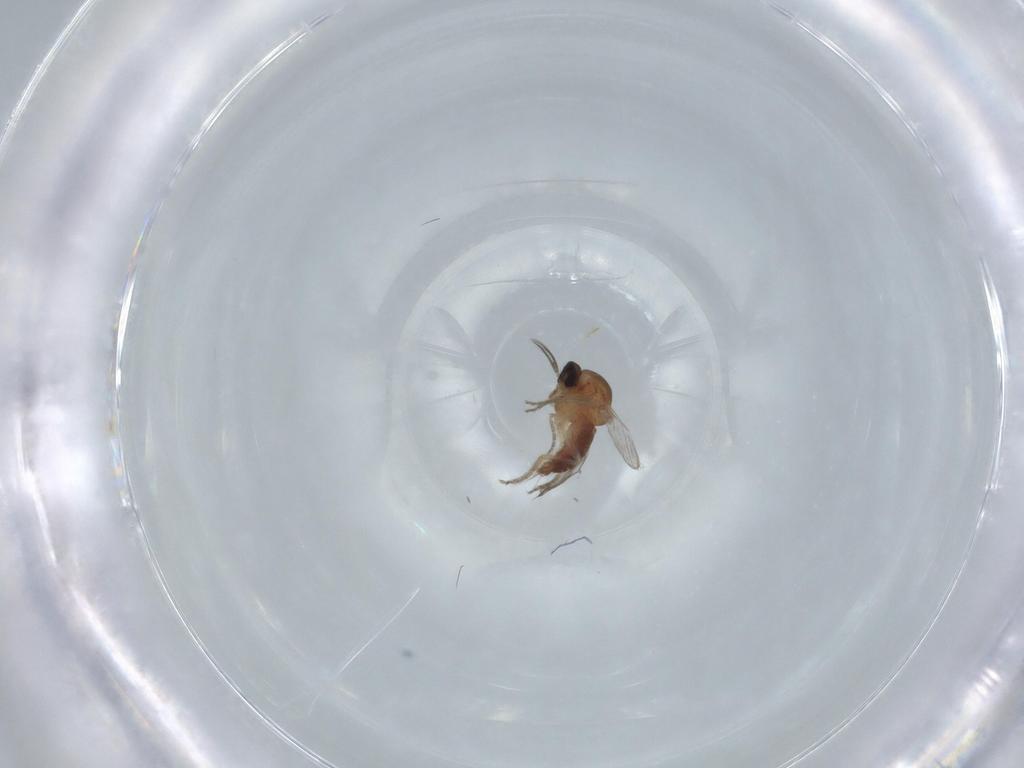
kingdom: Animalia
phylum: Arthropoda
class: Insecta
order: Diptera
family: Ceratopogonidae
